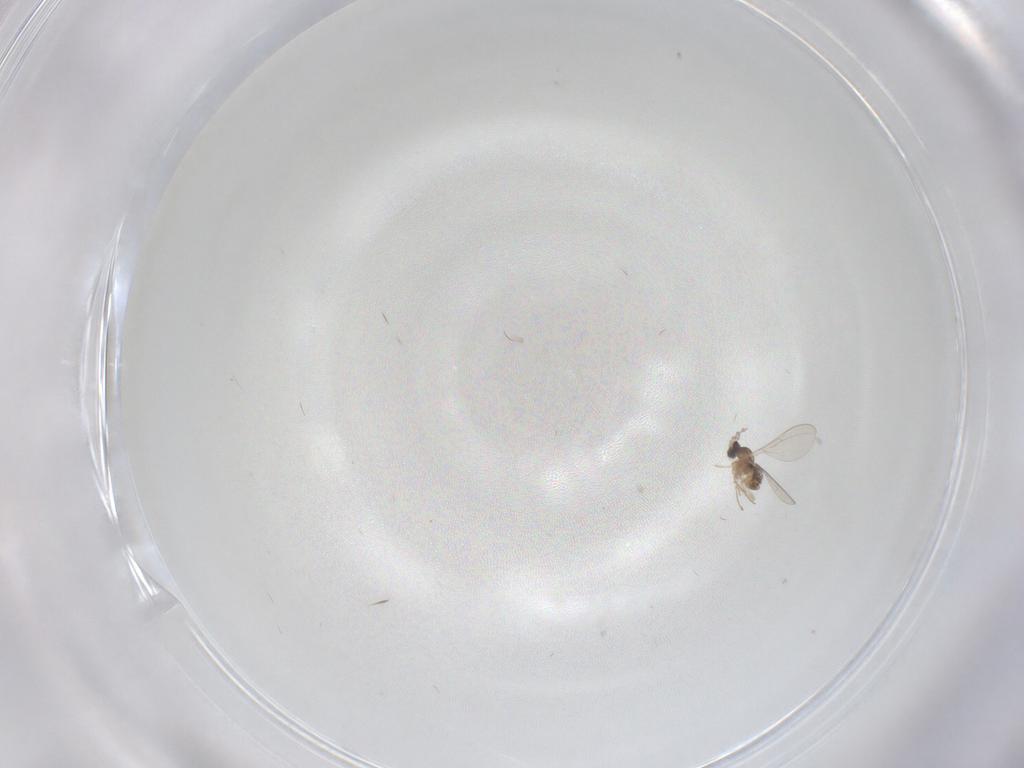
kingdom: Animalia
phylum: Arthropoda
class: Insecta
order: Diptera
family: Cecidomyiidae
